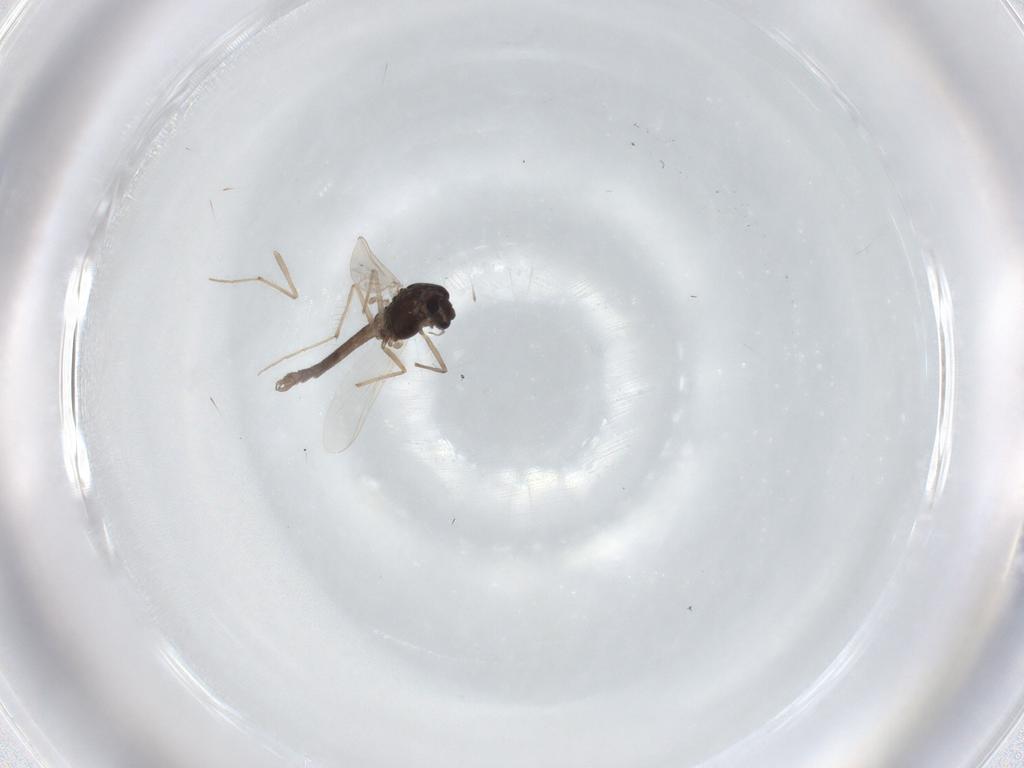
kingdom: Animalia
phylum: Arthropoda
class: Insecta
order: Diptera
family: Chironomidae
